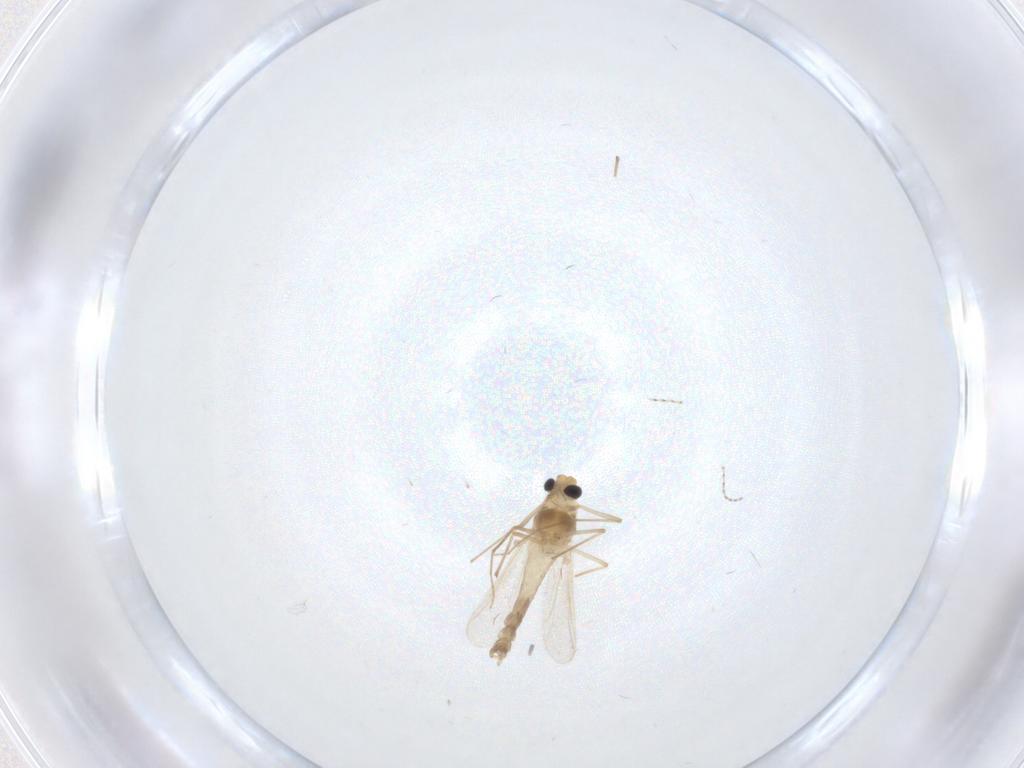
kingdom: Animalia
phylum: Arthropoda
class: Insecta
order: Diptera
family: Chironomidae
